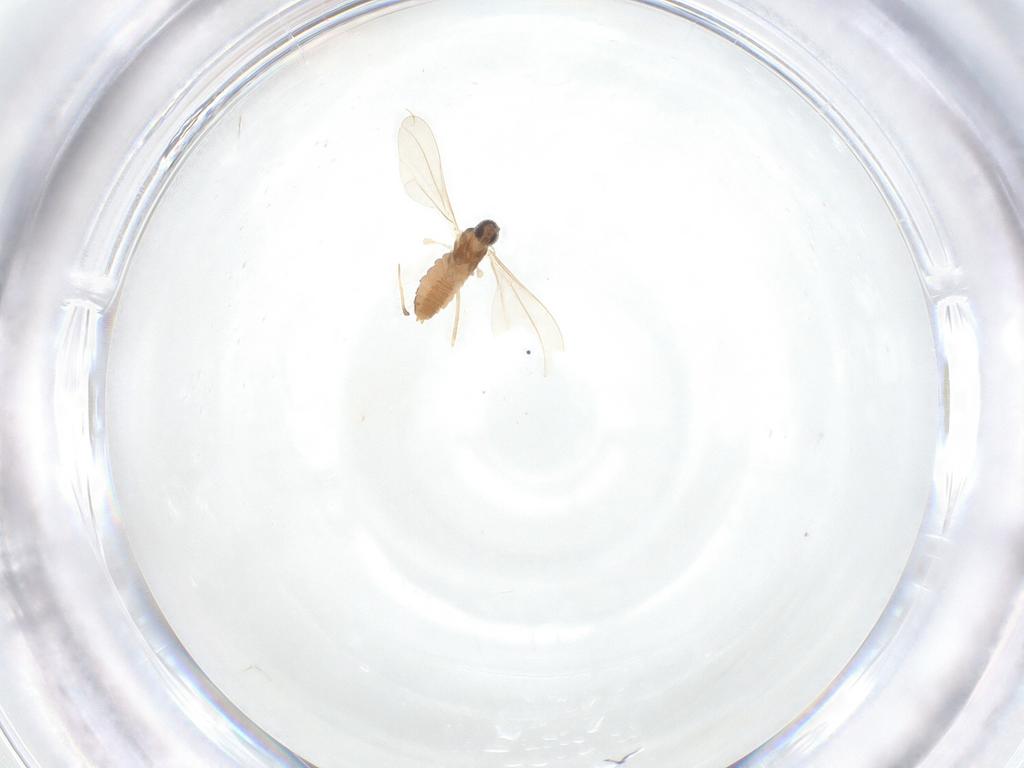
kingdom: Animalia
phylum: Arthropoda
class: Insecta
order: Diptera
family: Cecidomyiidae
